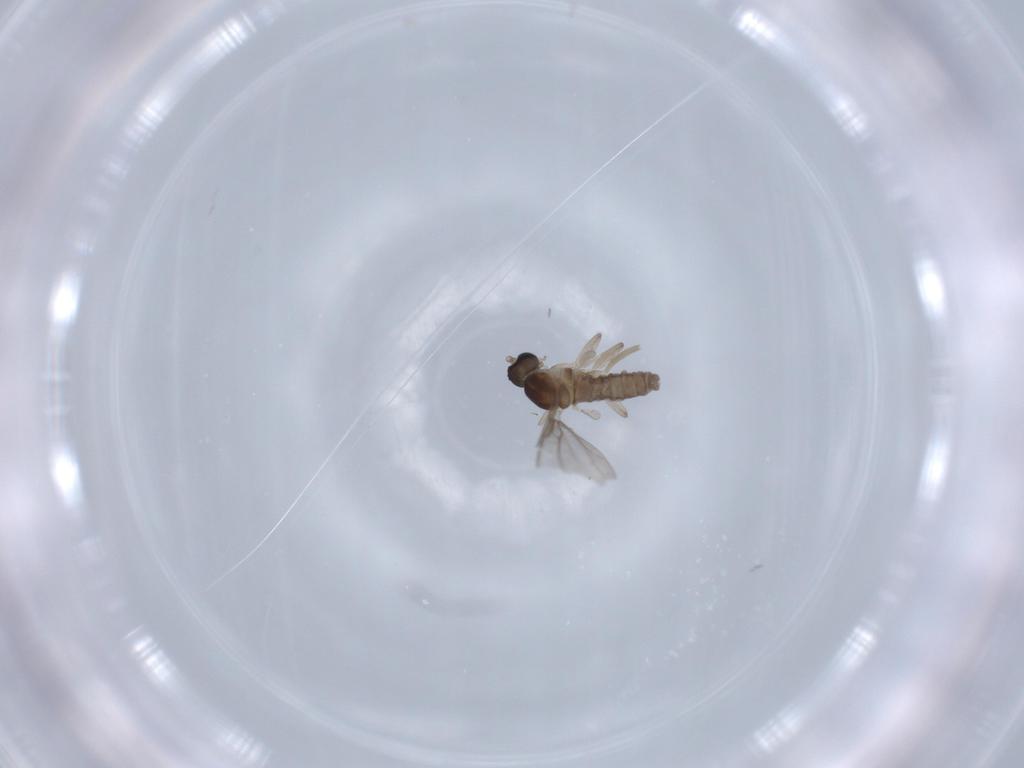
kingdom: Animalia
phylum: Arthropoda
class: Insecta
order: Diptera
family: Cecidomyiidae
